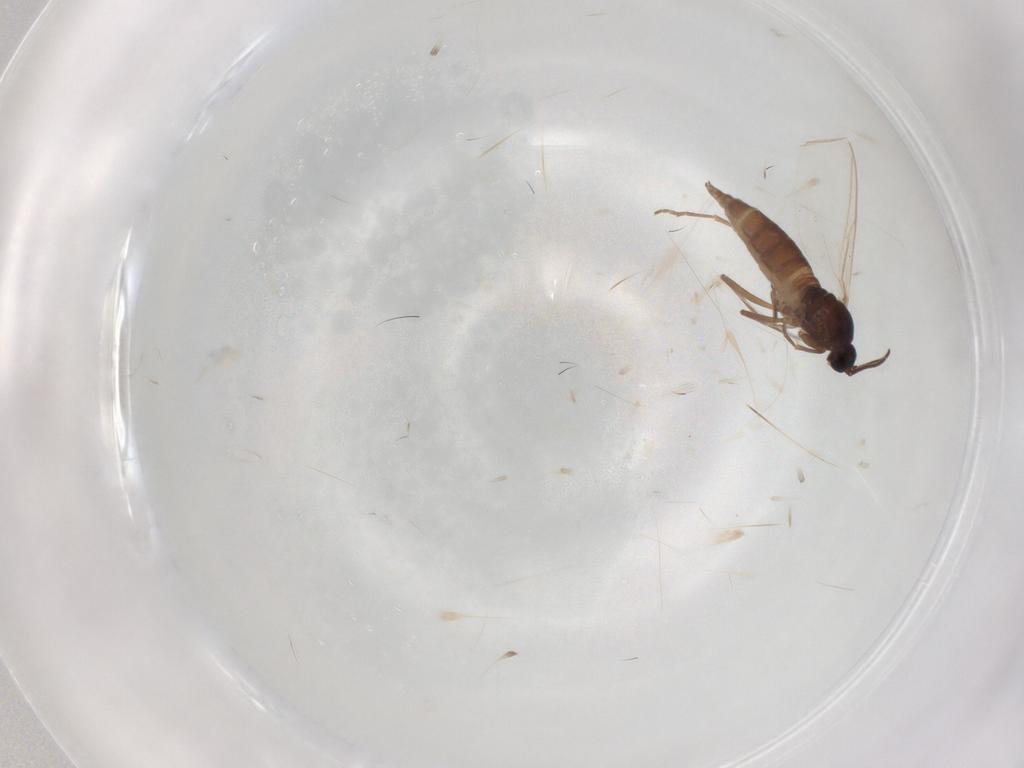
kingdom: Animalia
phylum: Arthropoda
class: Insecta
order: Diptera
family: Sciaridae
